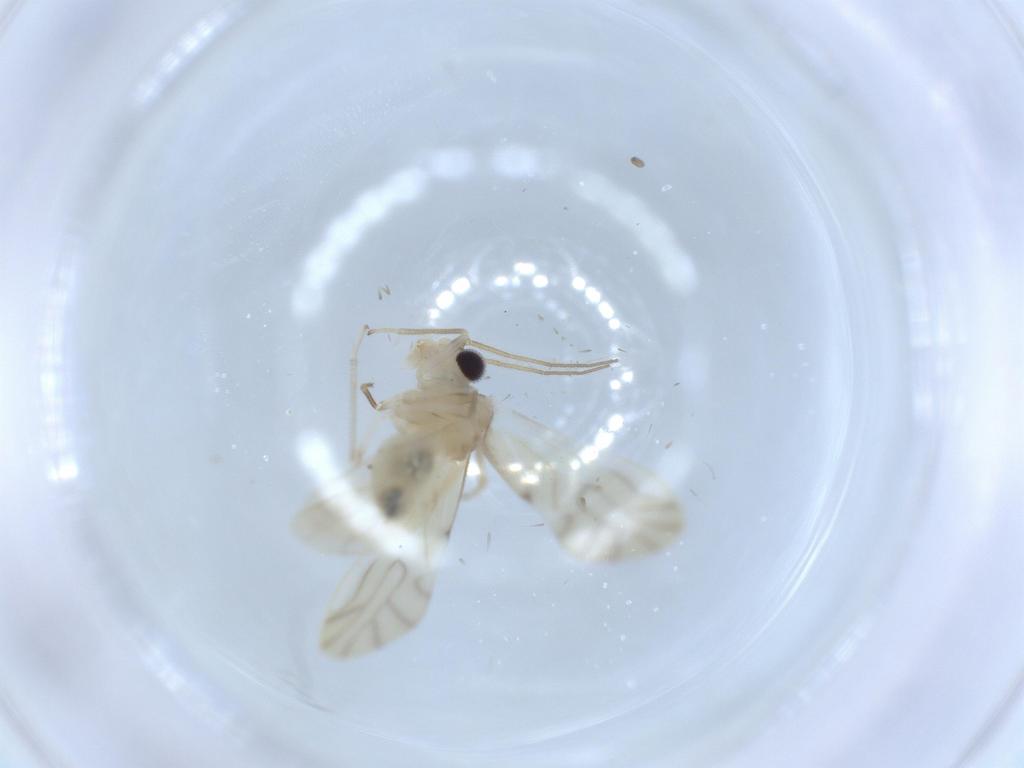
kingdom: Animalia
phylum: Arthropoda
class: Insecta
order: Psocodea
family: Caeciliusidae
